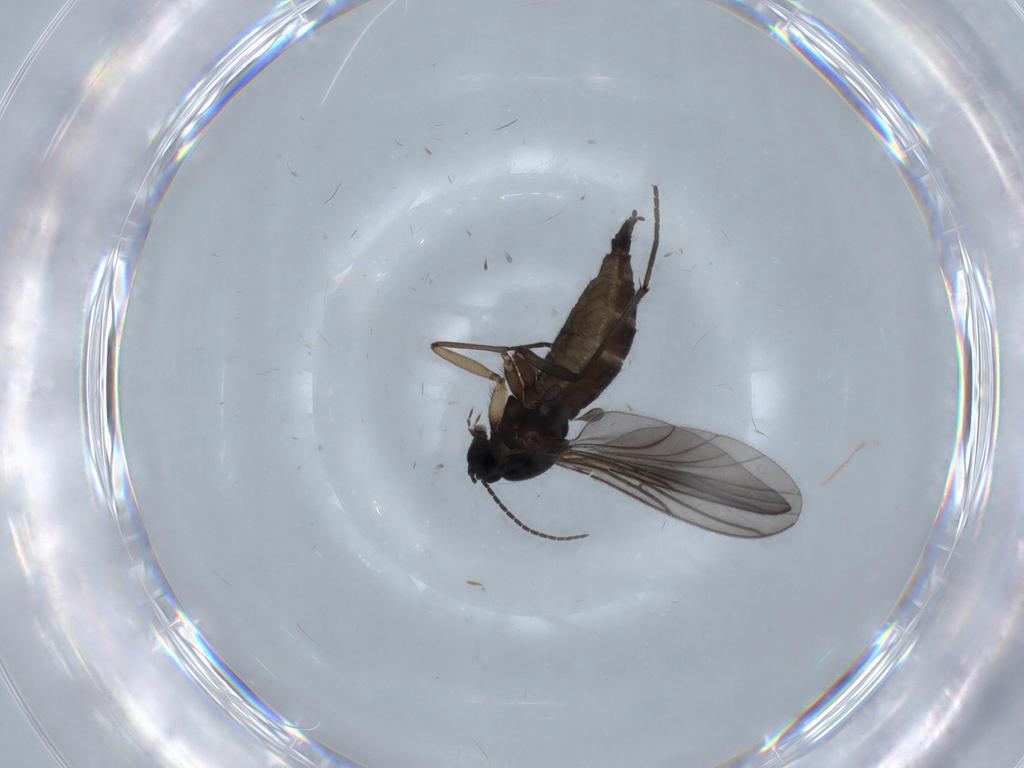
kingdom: Animalia
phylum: Arthropoda
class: Insecta
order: Diptera
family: Sciaridae
